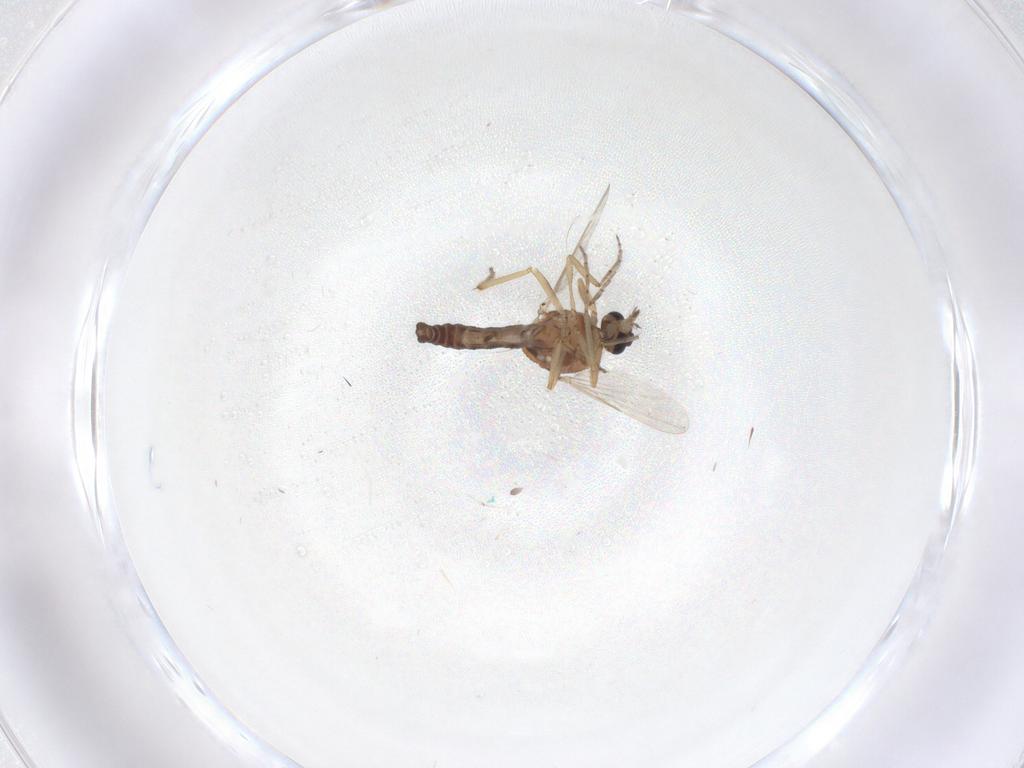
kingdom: Animalia
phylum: Arthropoda
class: Insecta
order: Diptera
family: Ceratopogonidae
